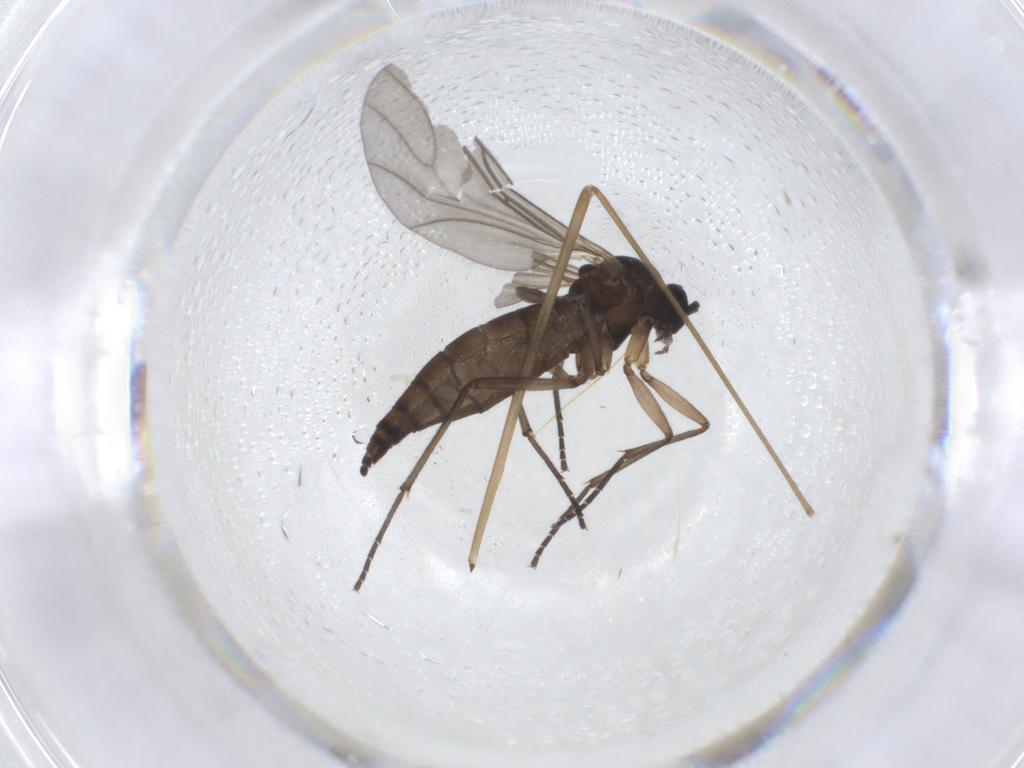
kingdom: Animalia
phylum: Arthropoda
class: Insecta
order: Diptera
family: Sciaridae
